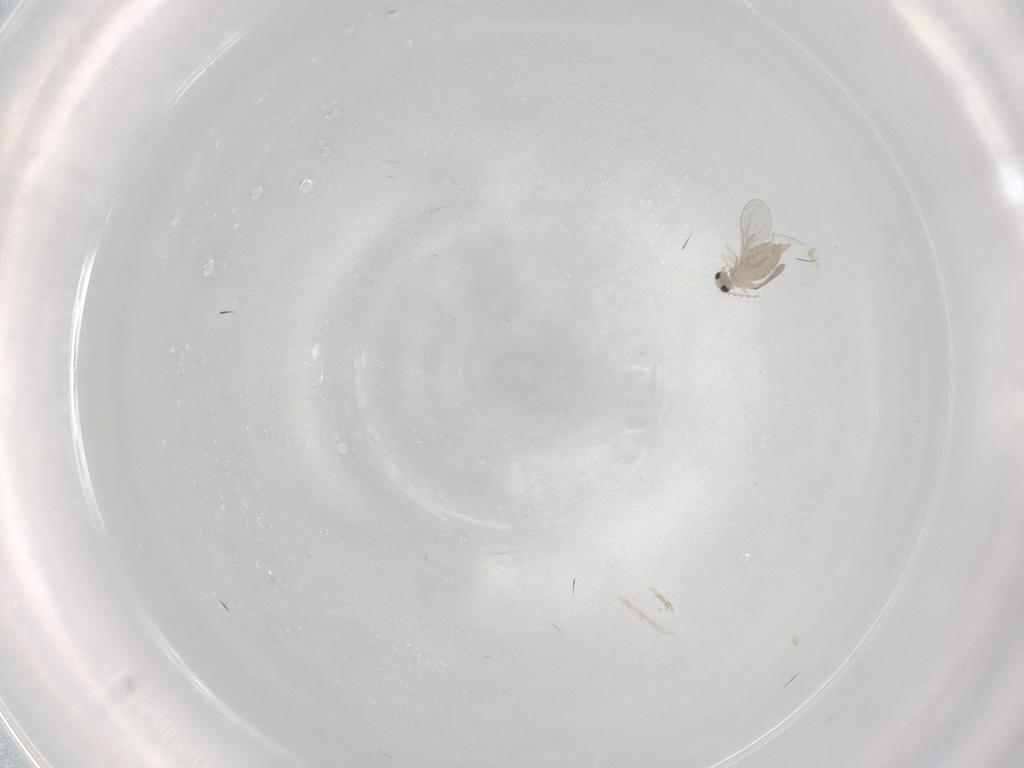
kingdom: Animalia
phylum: Arthropoda
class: Insecta
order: Diptera
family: Cecidomyiidae
